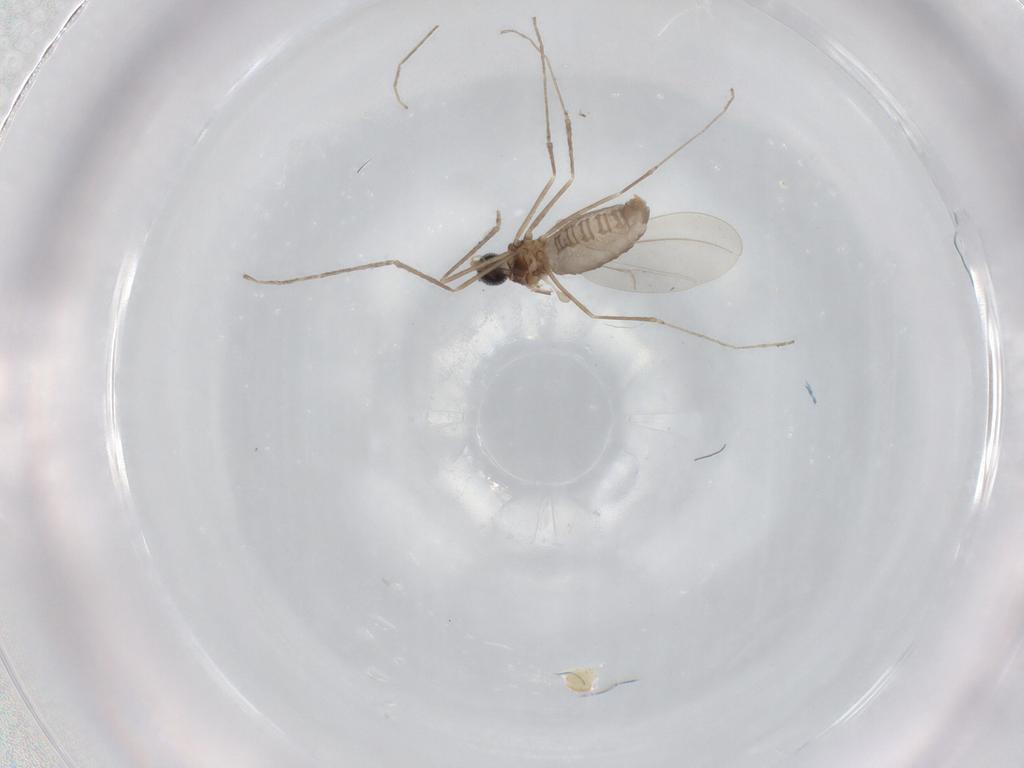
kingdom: Animalia
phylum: Arthropoda
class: Insecta
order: Diptera
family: Cecidomyiidae
